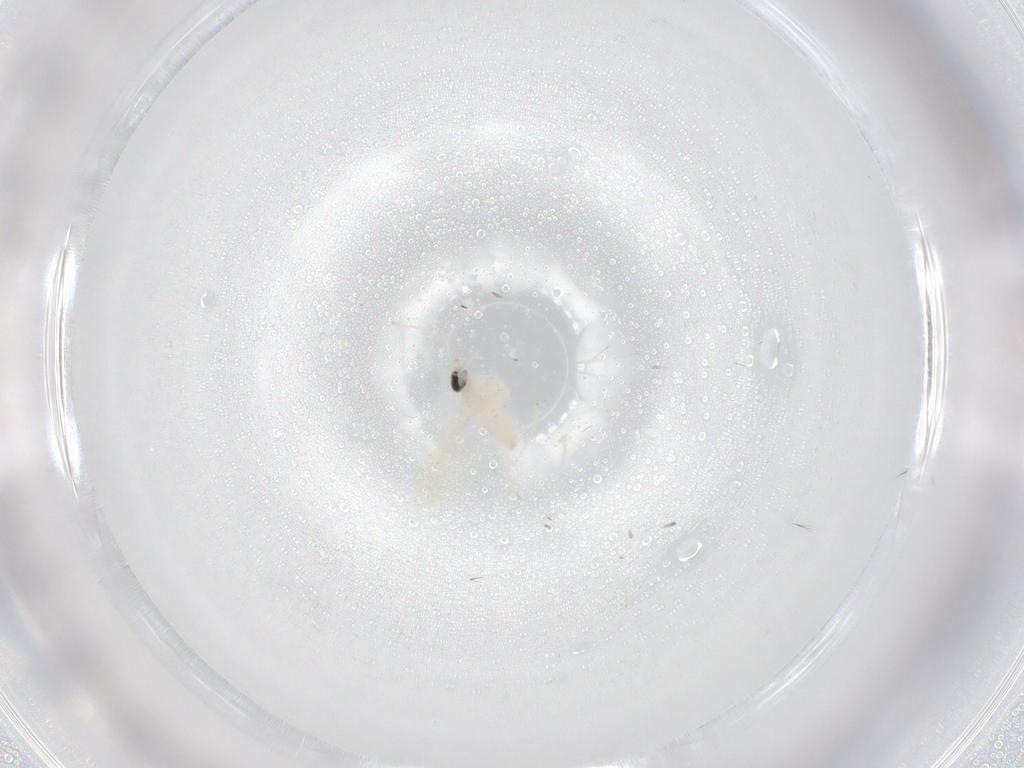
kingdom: Animalia
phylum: Arthropoda
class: Insecta
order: Diptera
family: Cecidomyiidae
